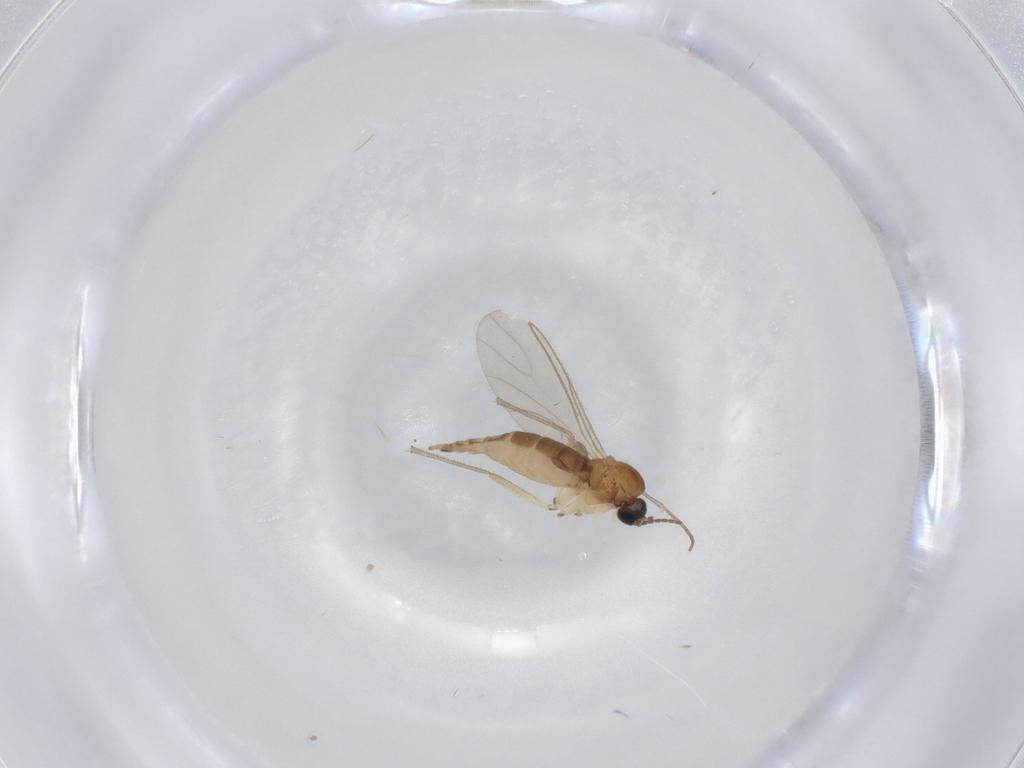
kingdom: Animalia
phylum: Arthropoda
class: Insecta
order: Diptera
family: Sciaridae
